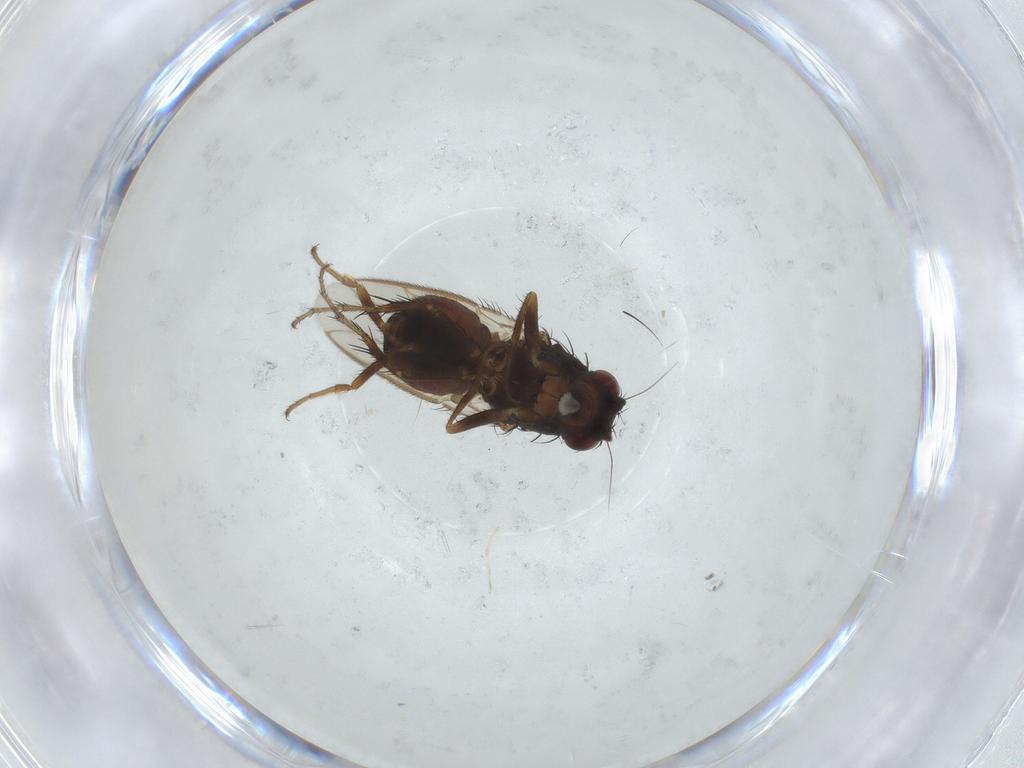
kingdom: Animalia
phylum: Arthropoda
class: Insecta
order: Diptera
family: Sphaeroceridae
